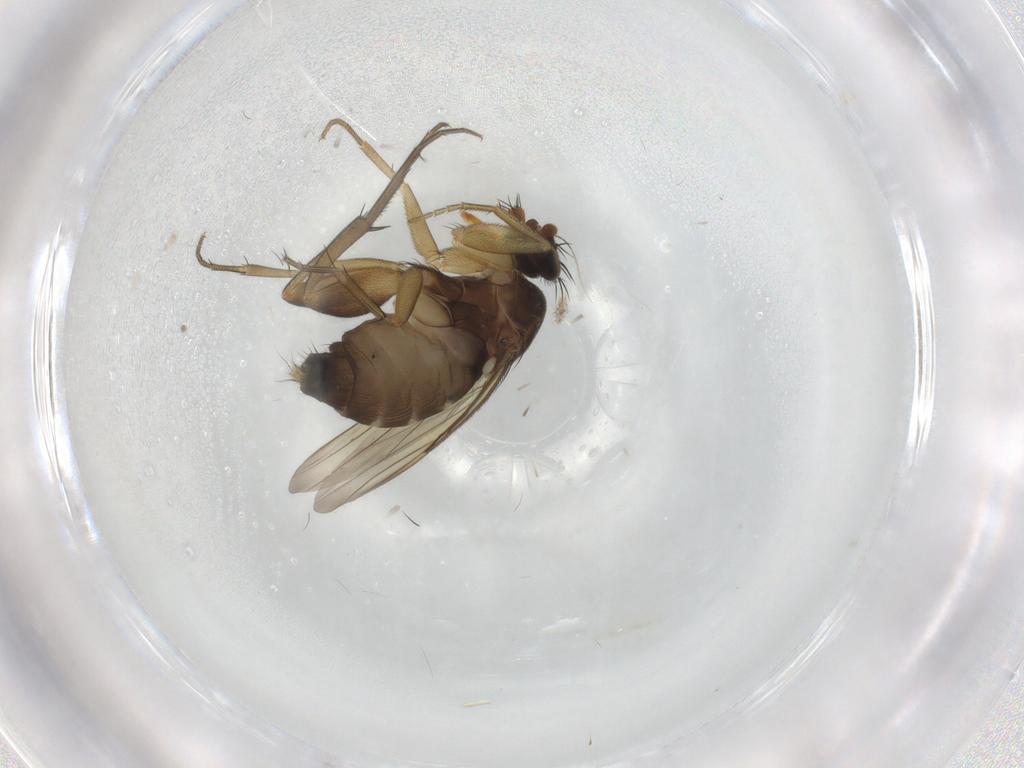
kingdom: Animalia
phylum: Arthropoda
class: Insecta
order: Diptera
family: Phoridae
